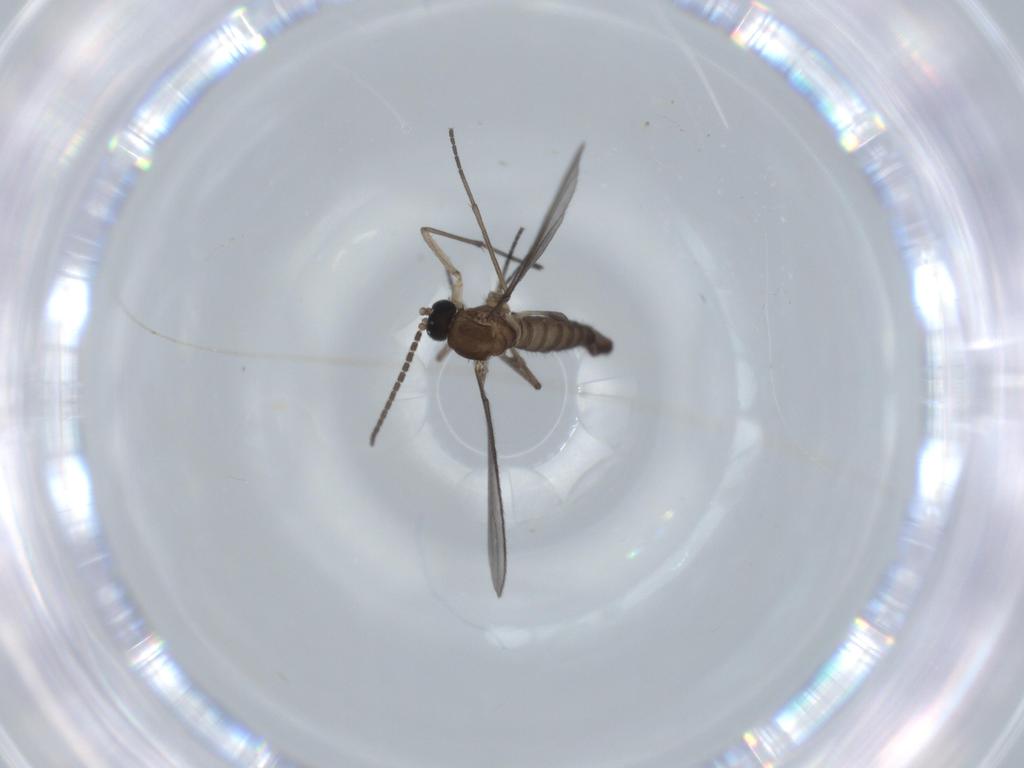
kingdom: Animalia
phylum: Arthropoda
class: Insecta
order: Diptera
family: Sciaridae
